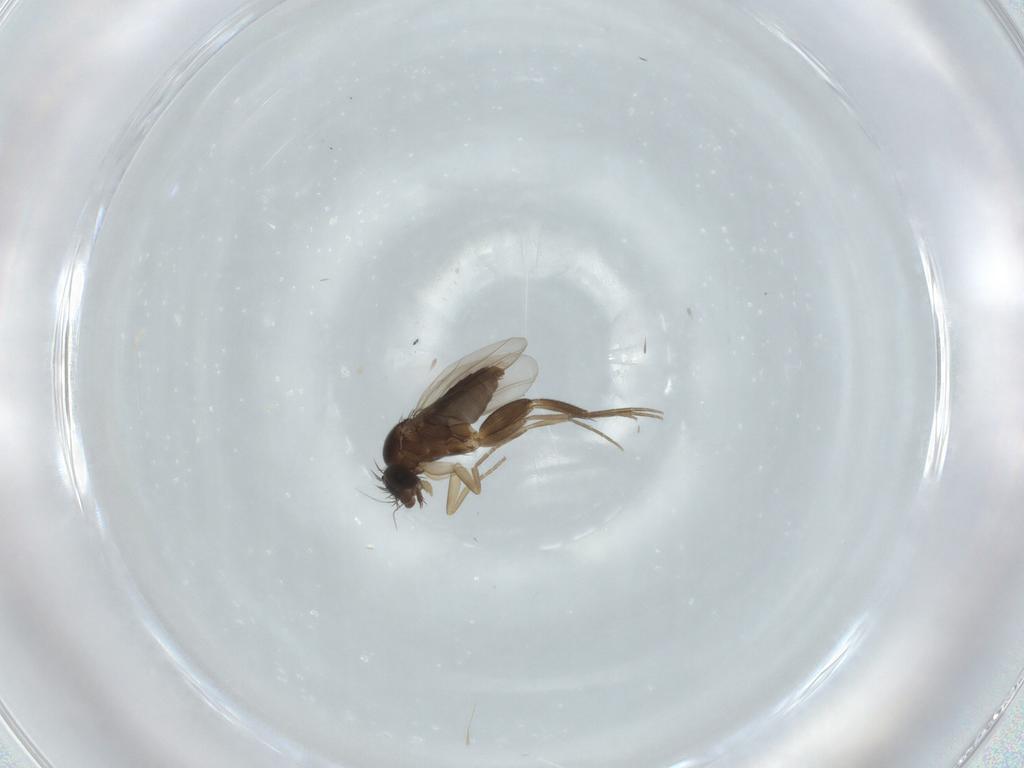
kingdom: Animalia
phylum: Arthropoda
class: Insecta
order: Diptera
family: Phoridae
